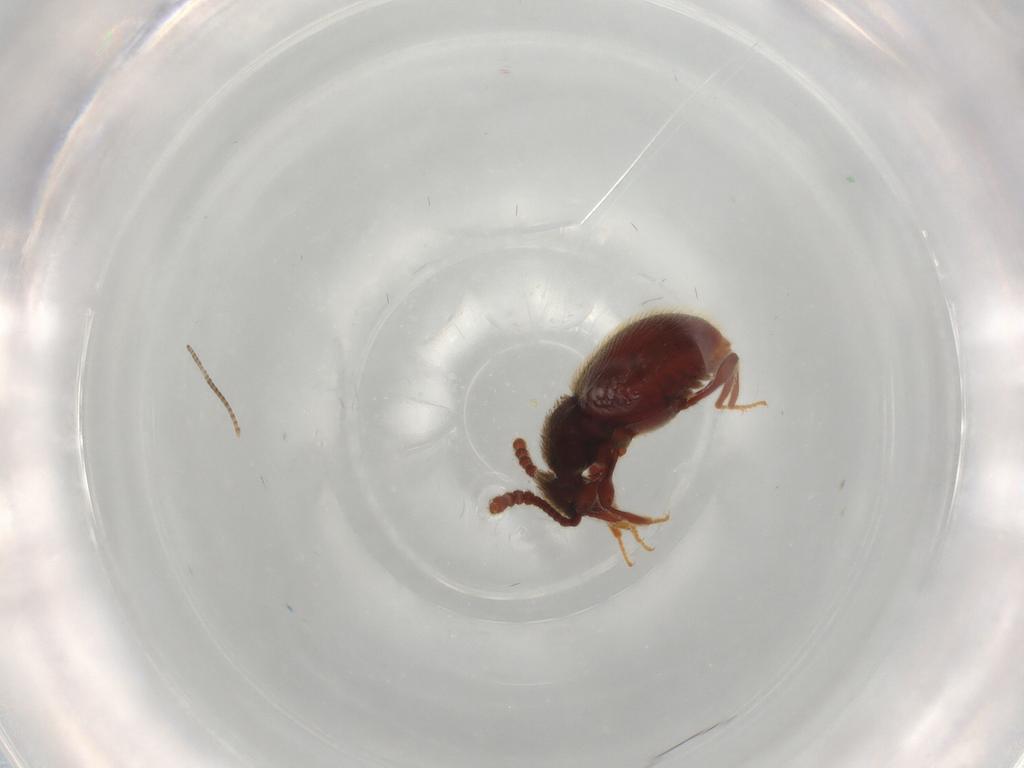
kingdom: Animalia
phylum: Arthropoda
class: Insecta
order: Coleoptera
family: Staphylinidae
